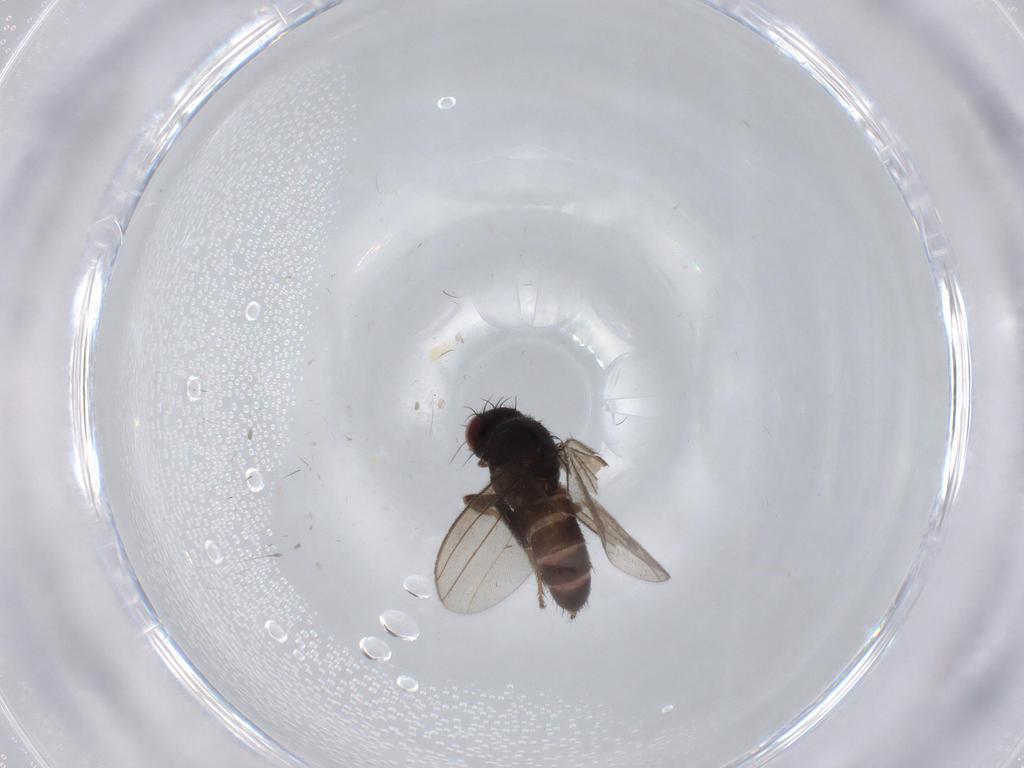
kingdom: Animalia
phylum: Arthropoda
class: Insecta
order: Diptera
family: Milichiidae
